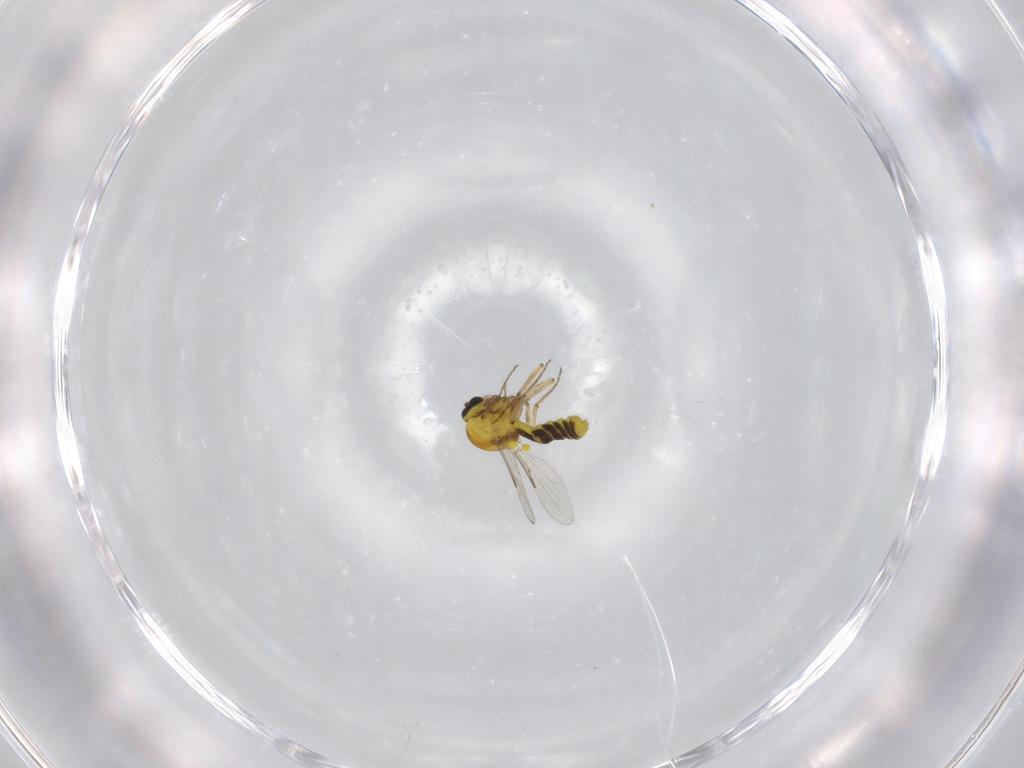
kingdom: Animalia
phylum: Arthropoda
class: Insecta
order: Diptera
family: Ceratopogonidae
